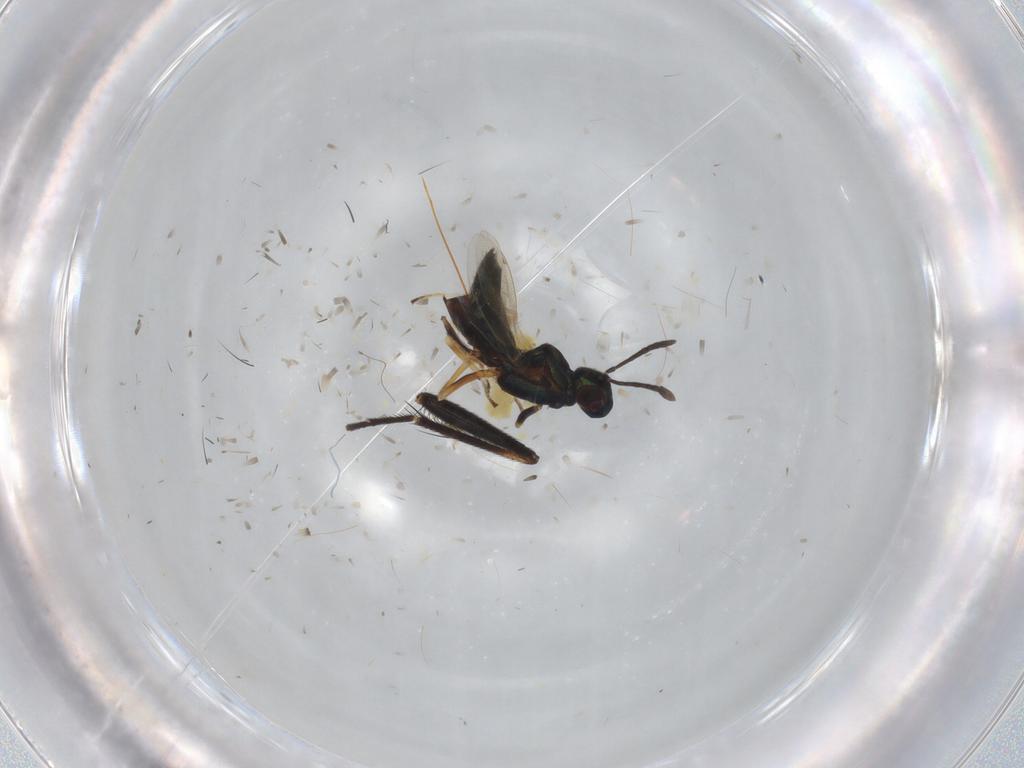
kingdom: Animalia
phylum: Arthropoda
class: Insecta
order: Hymenoptera
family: Eupelmidae
